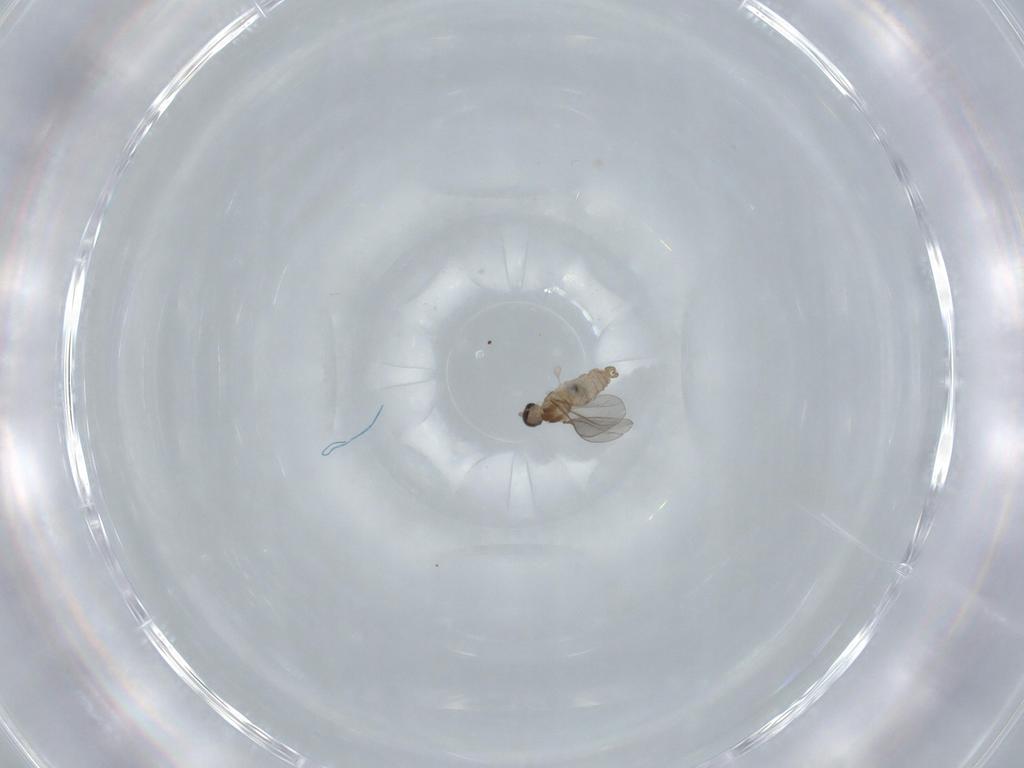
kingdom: Animalia
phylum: Arthropoda
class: Insecta
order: Diptera
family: Cecidomyiidae
